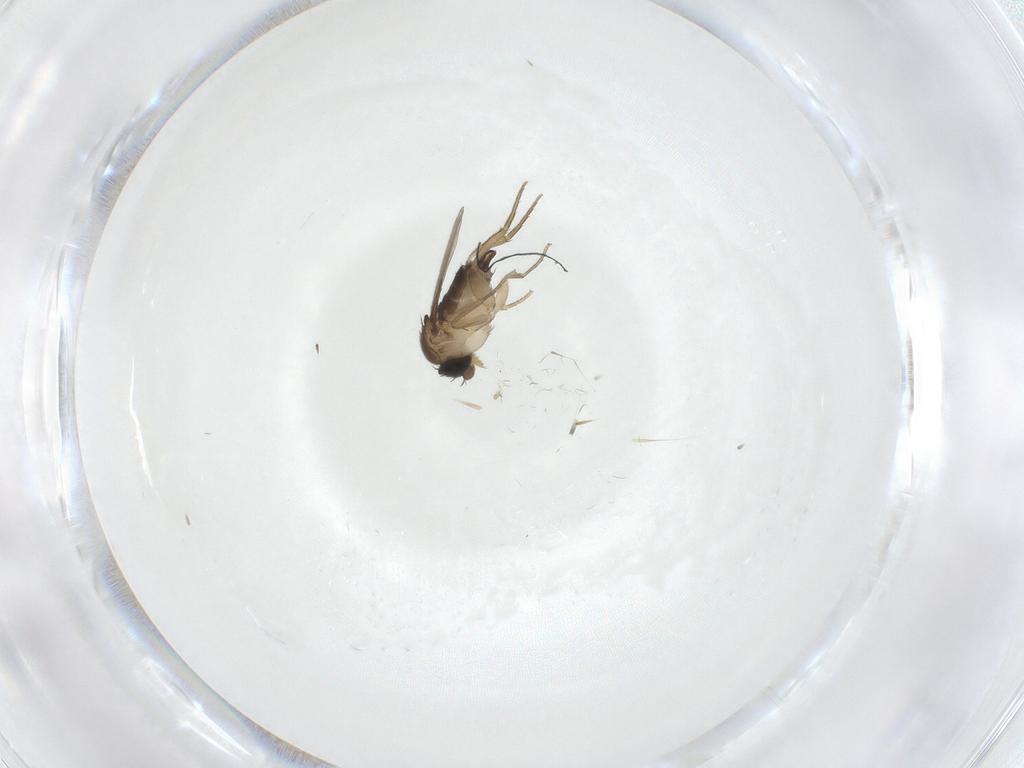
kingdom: Animalia
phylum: Arthropoda
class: Insecta
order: Diptera
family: Phoridae
